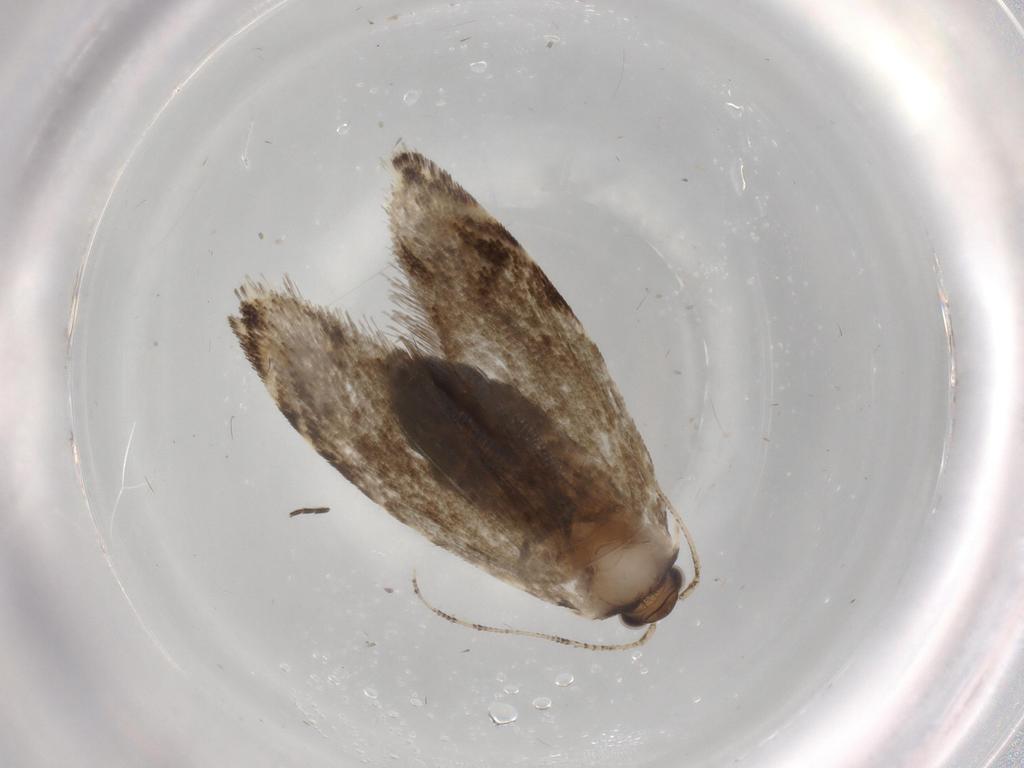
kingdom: Animalia
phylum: Arthropoda
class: Insecta
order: Lepidoptera
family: Tineidae
